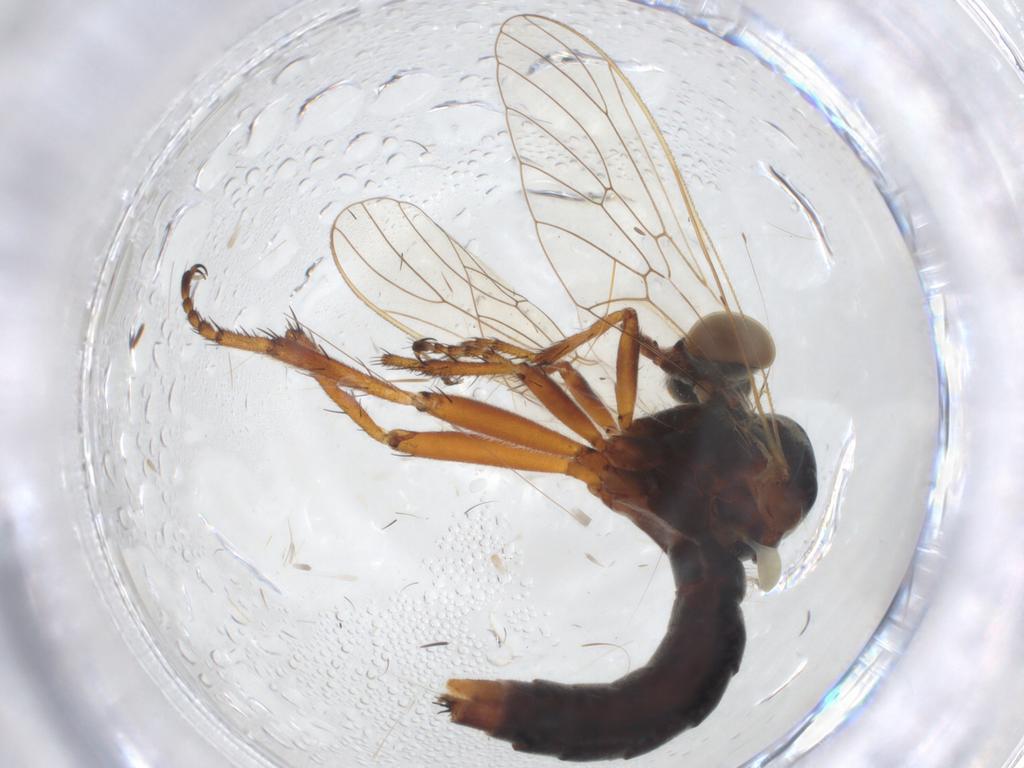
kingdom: Animalia
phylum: Arthropoda
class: Insecta
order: Diptera
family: Asilidae
